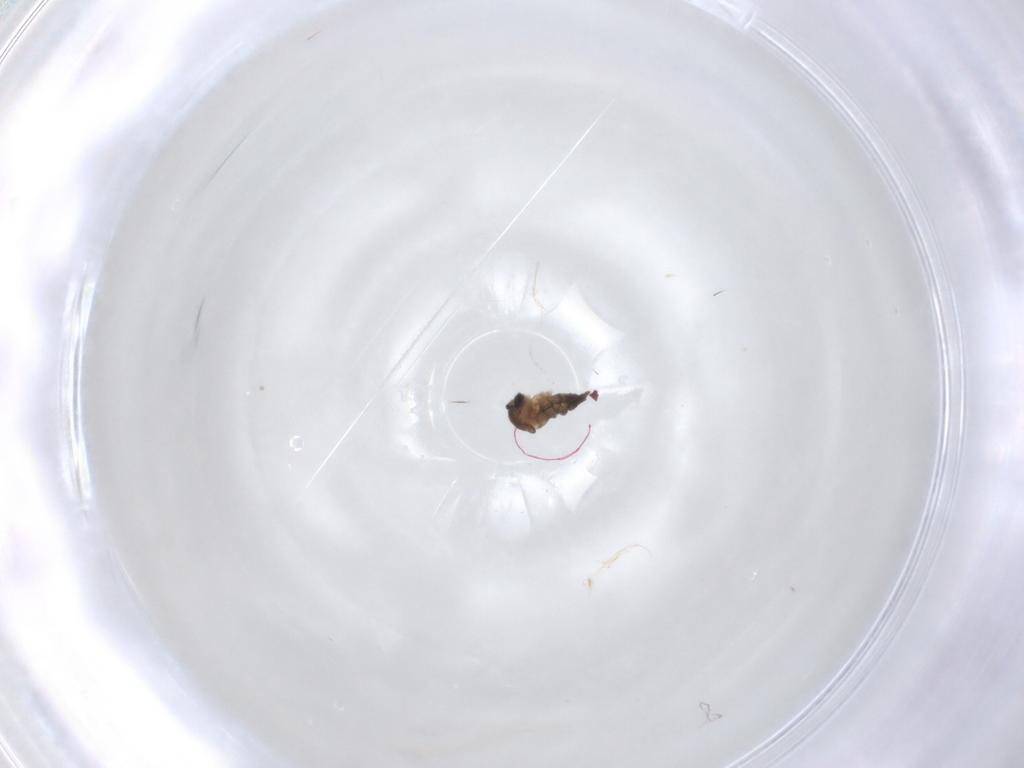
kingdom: Animalia
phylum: Arthropoda
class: Insecta
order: Diptera
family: Cecidomyiidae
